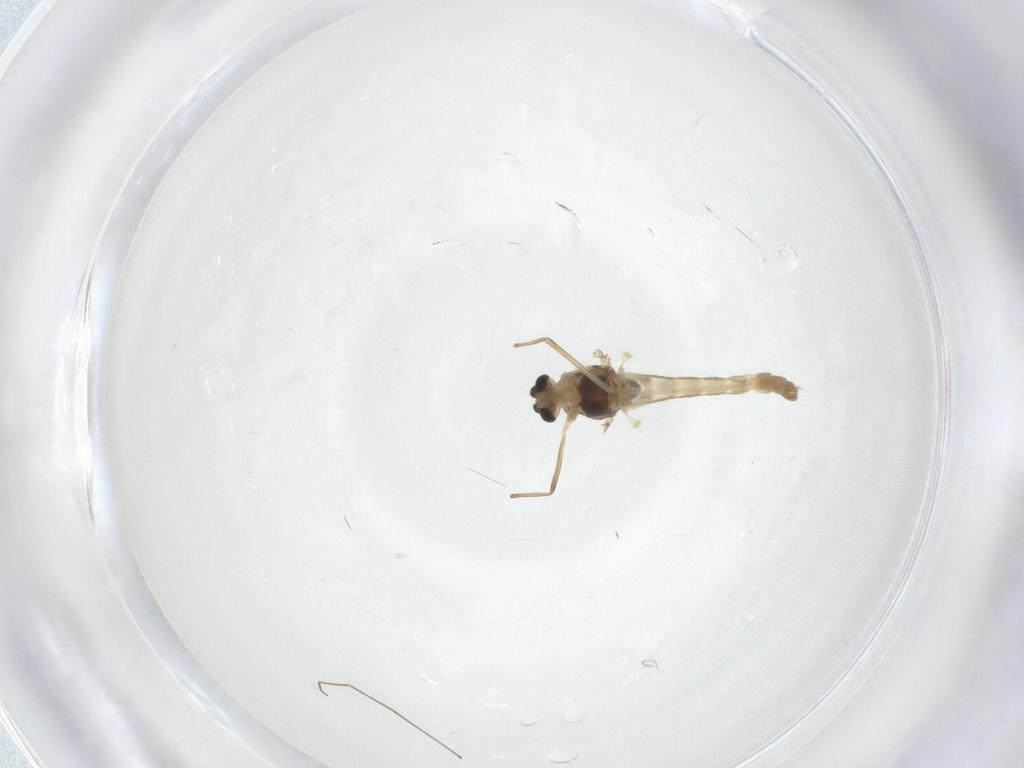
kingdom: Animalia
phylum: Arthropoda
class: Insecta
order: Diptera
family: Chironomidae
